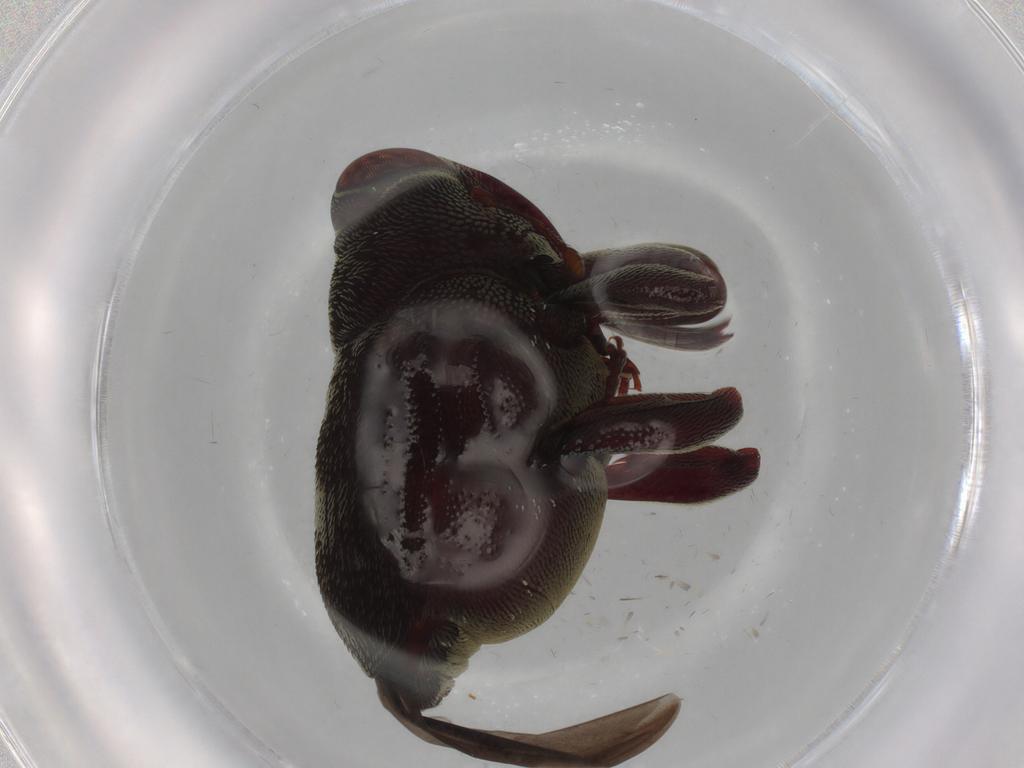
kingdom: Animalia
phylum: Arthropoda
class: Insecta
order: Coleoptera
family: Curculionidae
